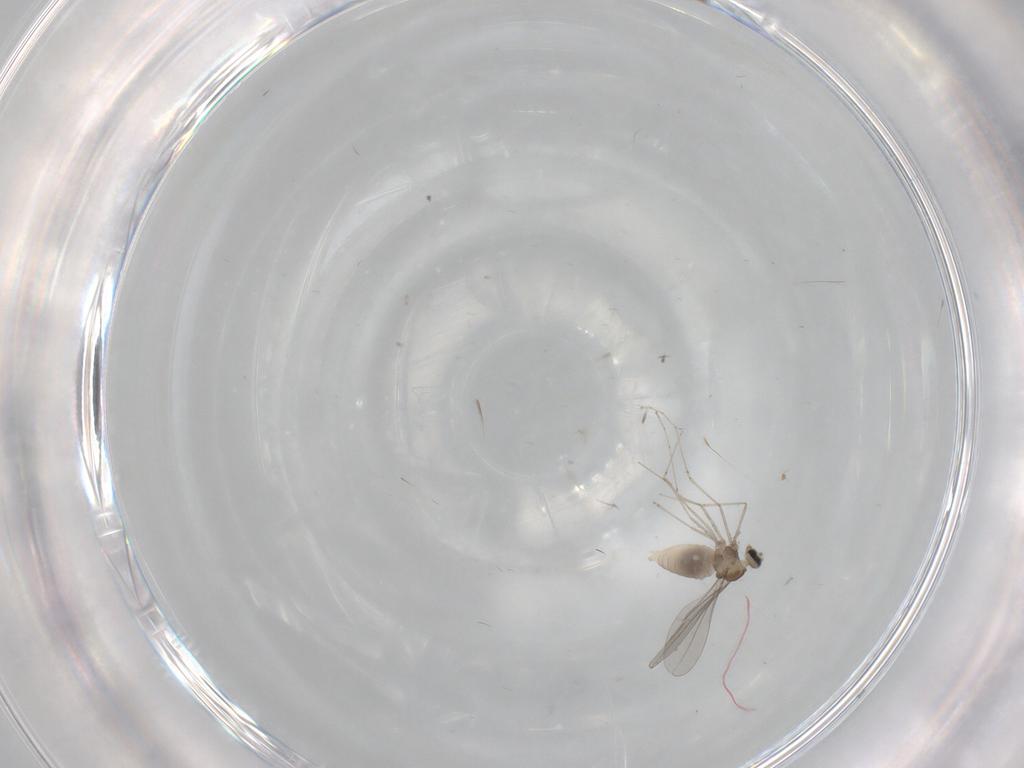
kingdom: Animalia
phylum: Arthropoda
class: Insecta
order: Diptera
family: Cecidomyiidae
